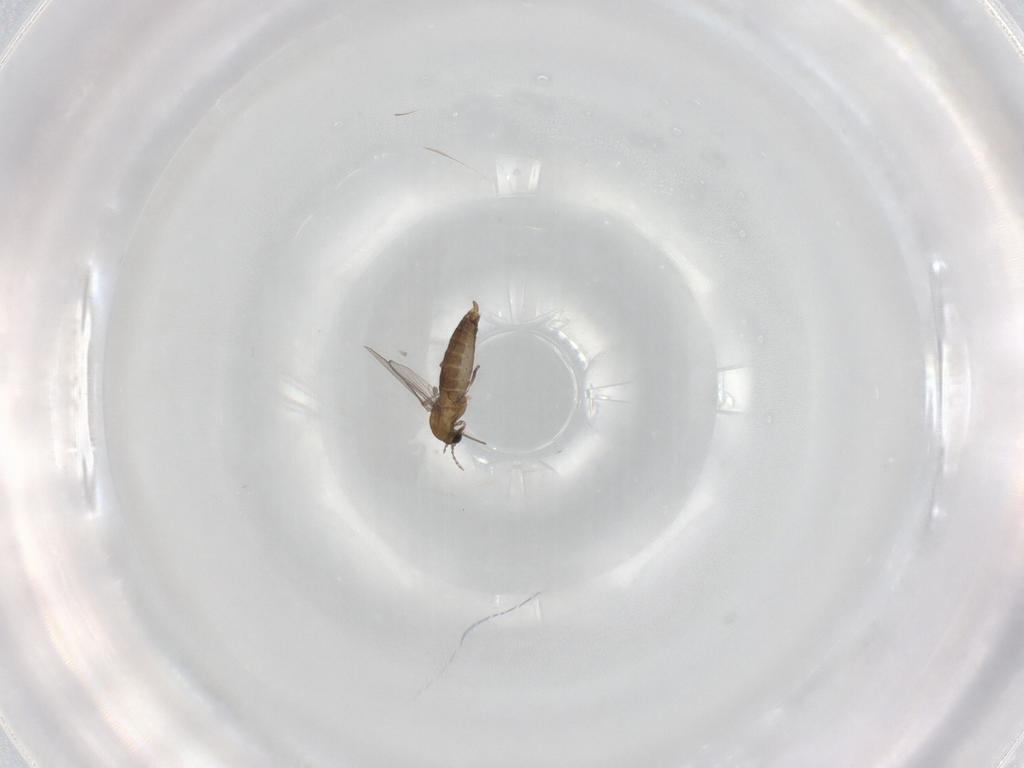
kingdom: Animalia
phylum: Arthropoda
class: Insecta
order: Diptera
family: Chironomidae
